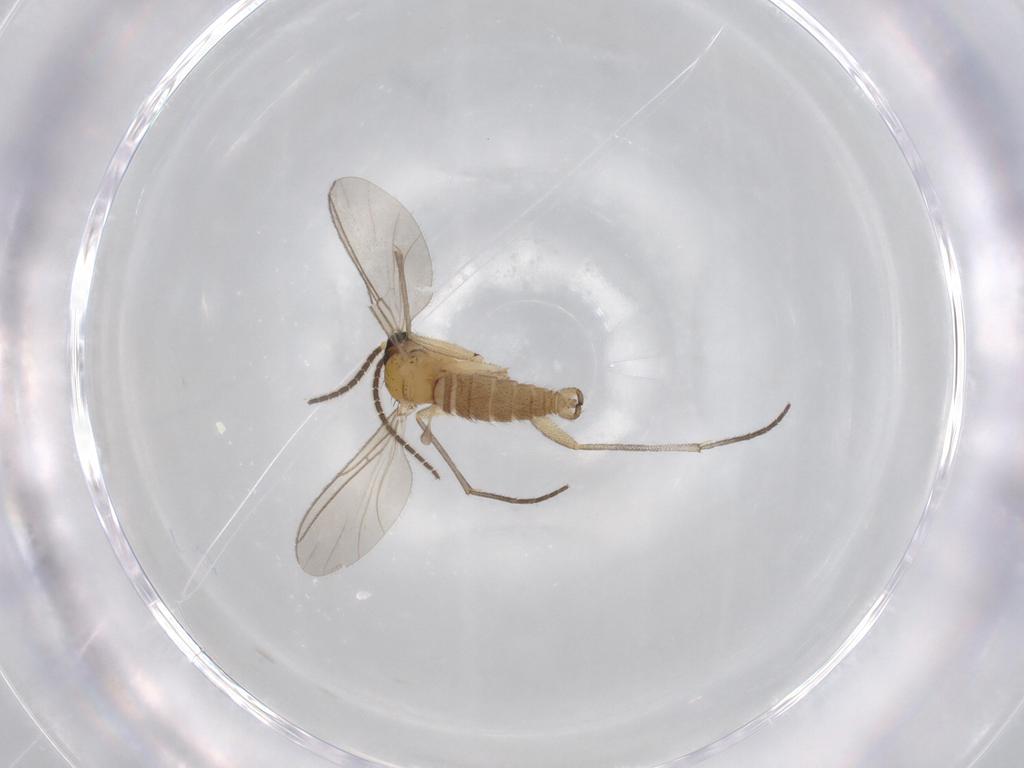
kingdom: Animalia
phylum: Arthropoda
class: Insecta
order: Diptera
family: Sciaridae
